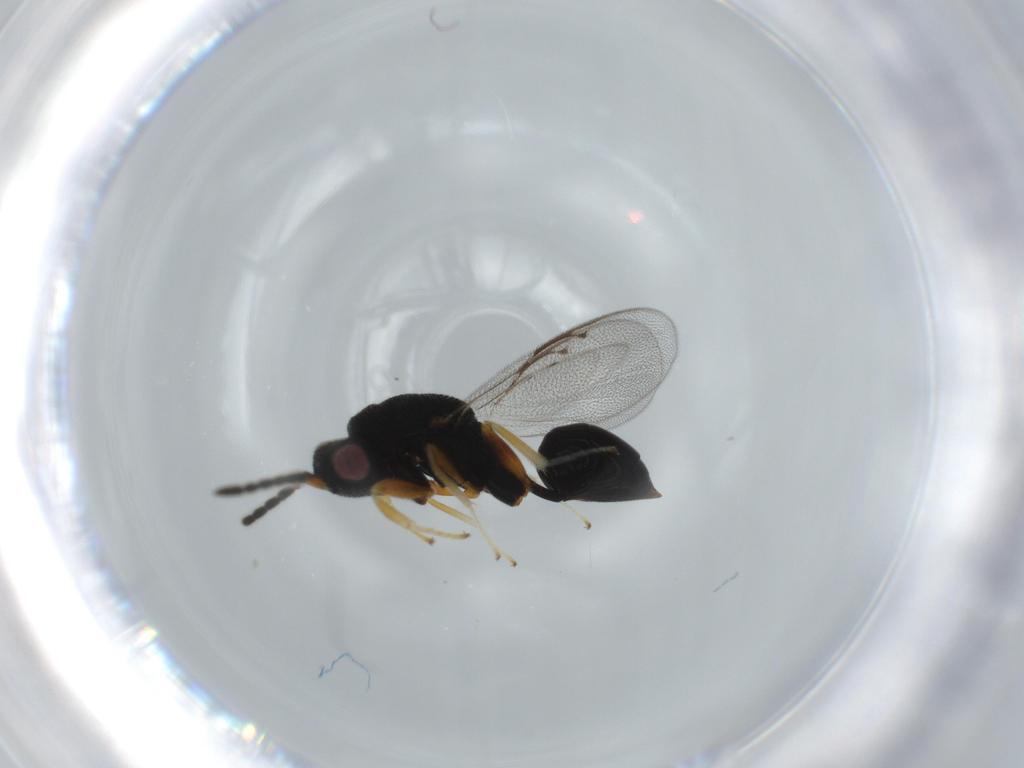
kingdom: Animalia
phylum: Arthropoda
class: Insecta
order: Hymenoptera
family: Eurytomidae
